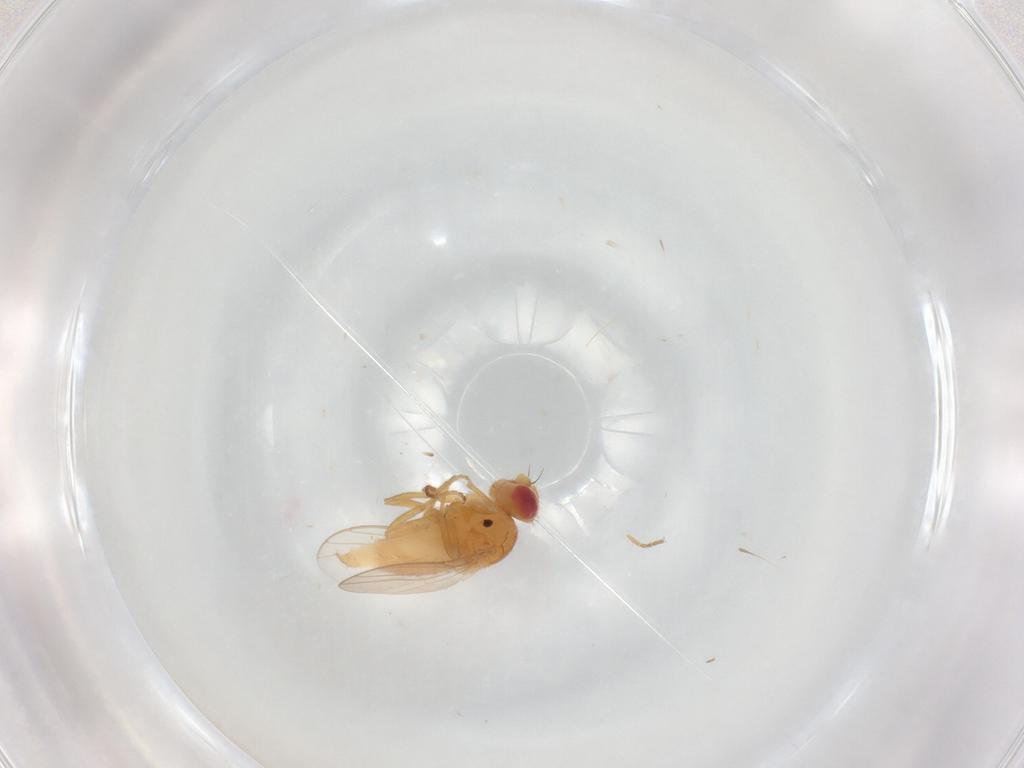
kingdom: Animalia
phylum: Arthropoda
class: Insecta
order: Diptera
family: Chloropidae
